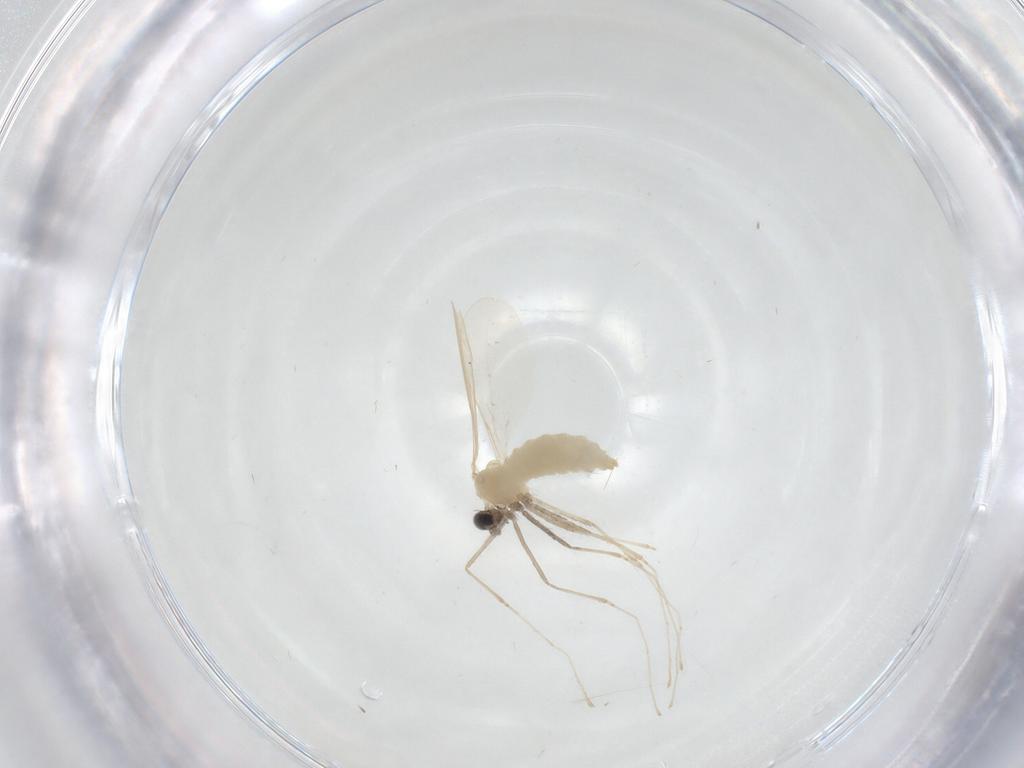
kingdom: Animalia
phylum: Arthropoda
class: Insecta
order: Diptera
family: Cecidomyiidae
